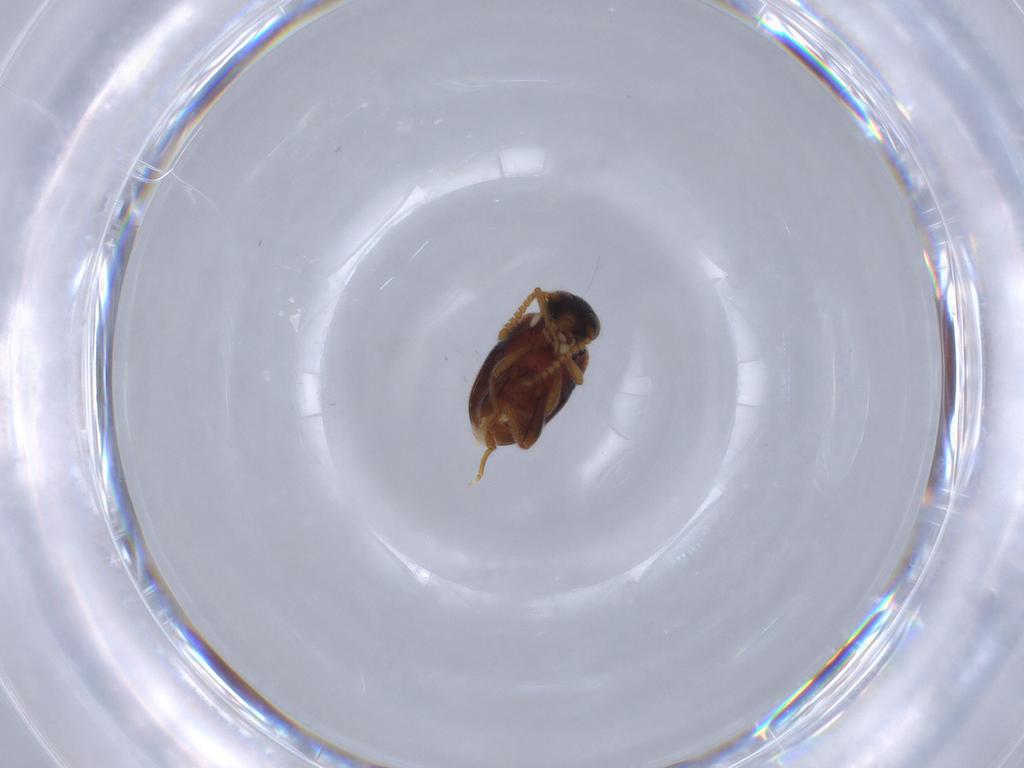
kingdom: Animalia
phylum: Arthropoda
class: Insecta
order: Coleoptera
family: Aderidae
